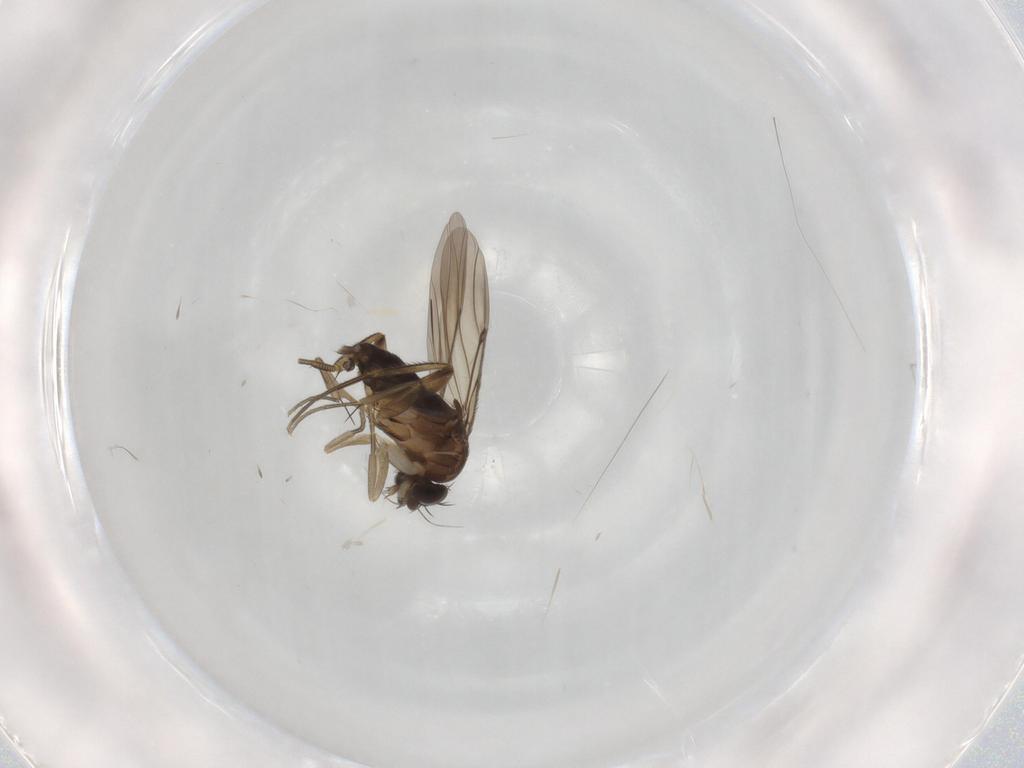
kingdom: Animalia
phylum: Arthropoda
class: Insecta
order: Diptera
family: Phoridae
